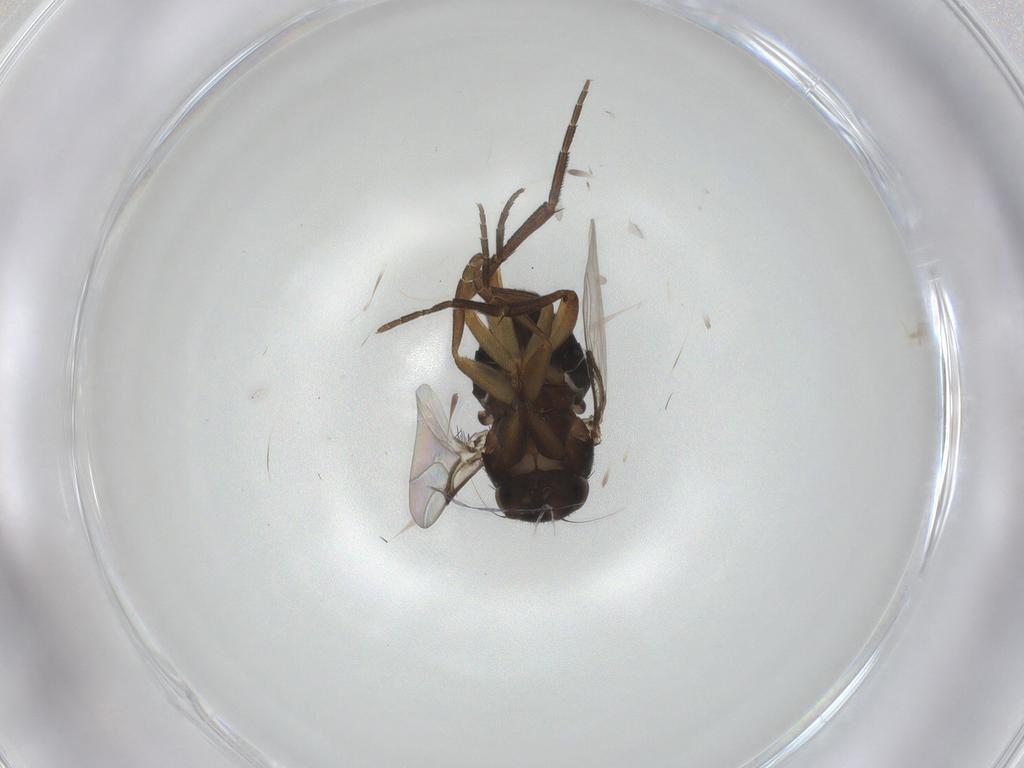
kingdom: Animalia
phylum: Arthropoda
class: Insecta
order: Diptera
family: Phoridae
